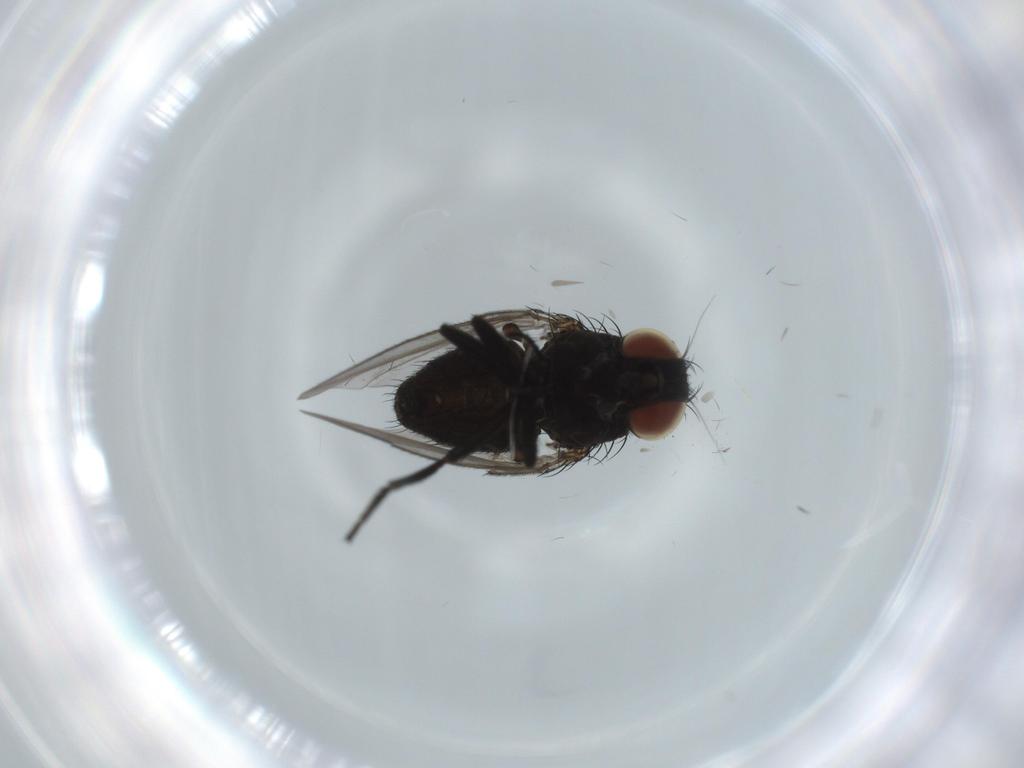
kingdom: Animalia
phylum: Arthropoda
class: Insecta
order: Diptera
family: Milichiidae
